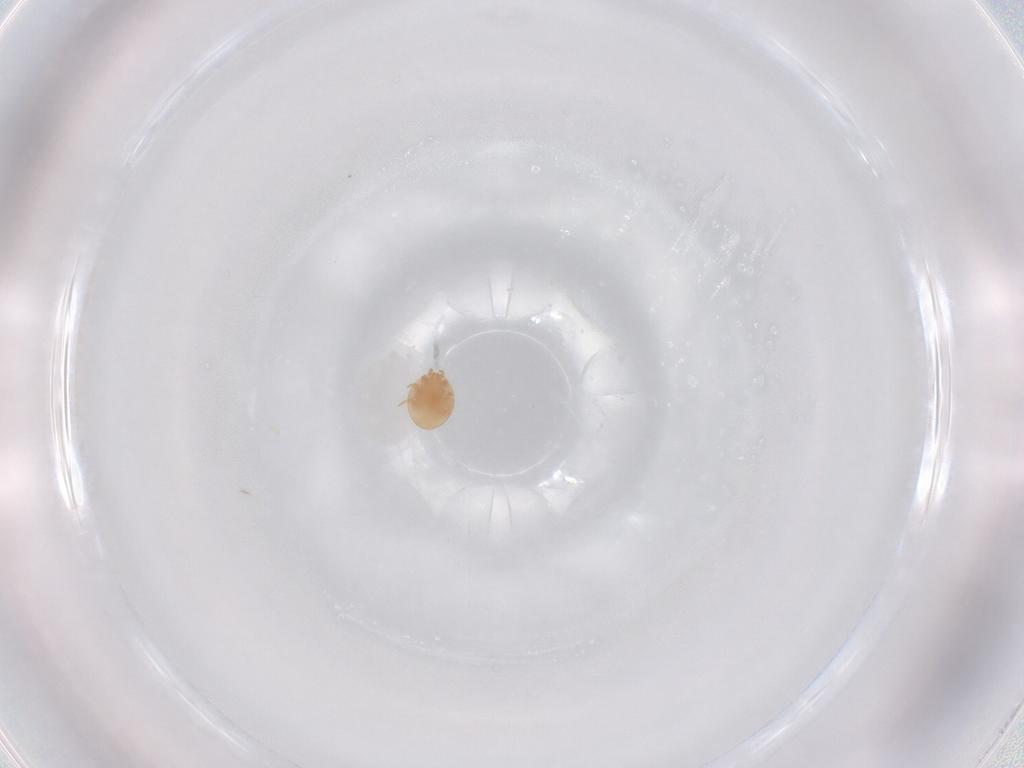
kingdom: Animalia
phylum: Arthropoda
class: Arachnida
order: Mesostigmata
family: Trematuridae
